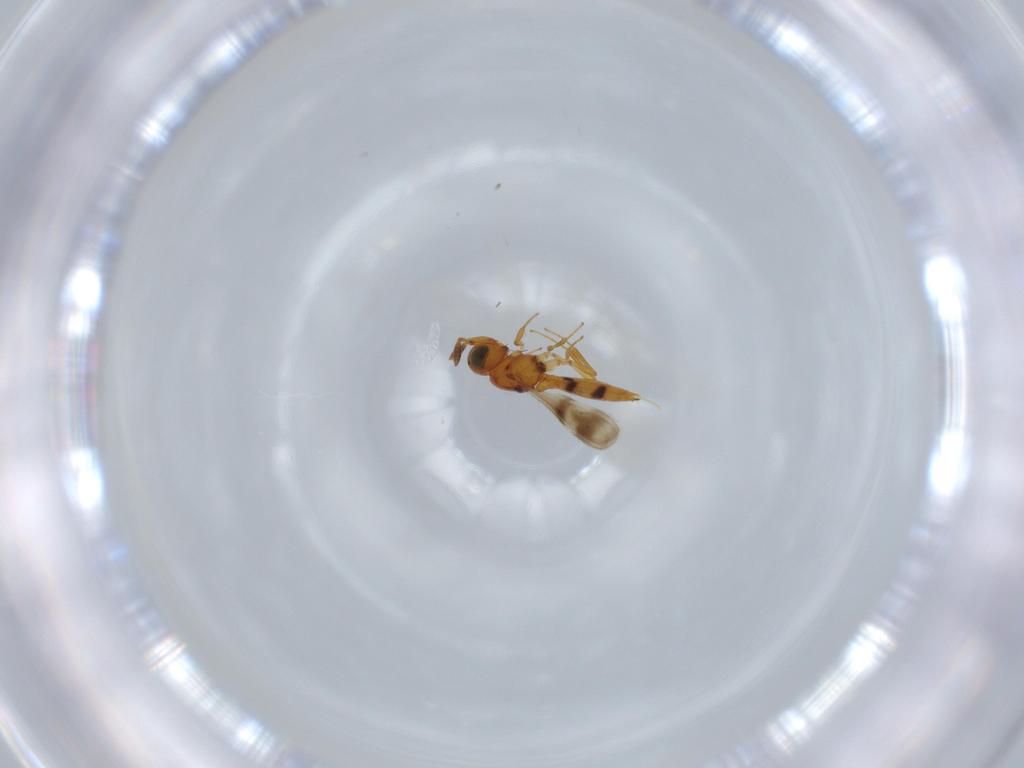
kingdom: Animalia
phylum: Arthropoda
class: Insecta
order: Hymenoptera
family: Scelionidae
